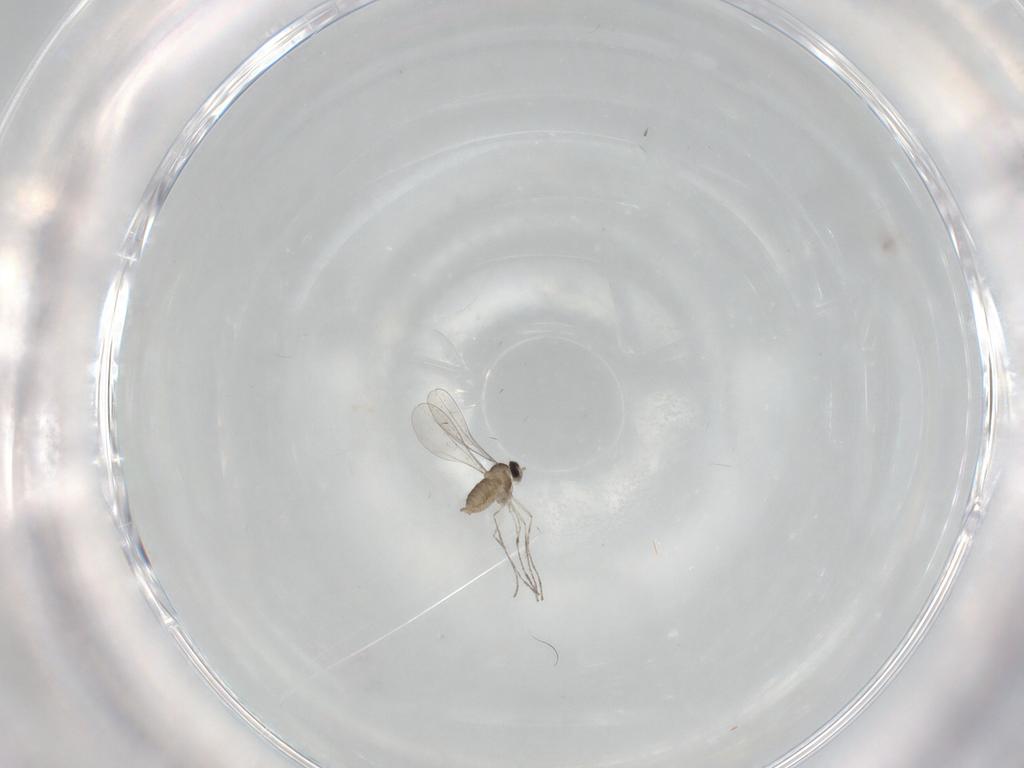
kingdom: Animalia
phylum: Arthropoda
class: Insecta
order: Diptera
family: Cecidomyiidae
